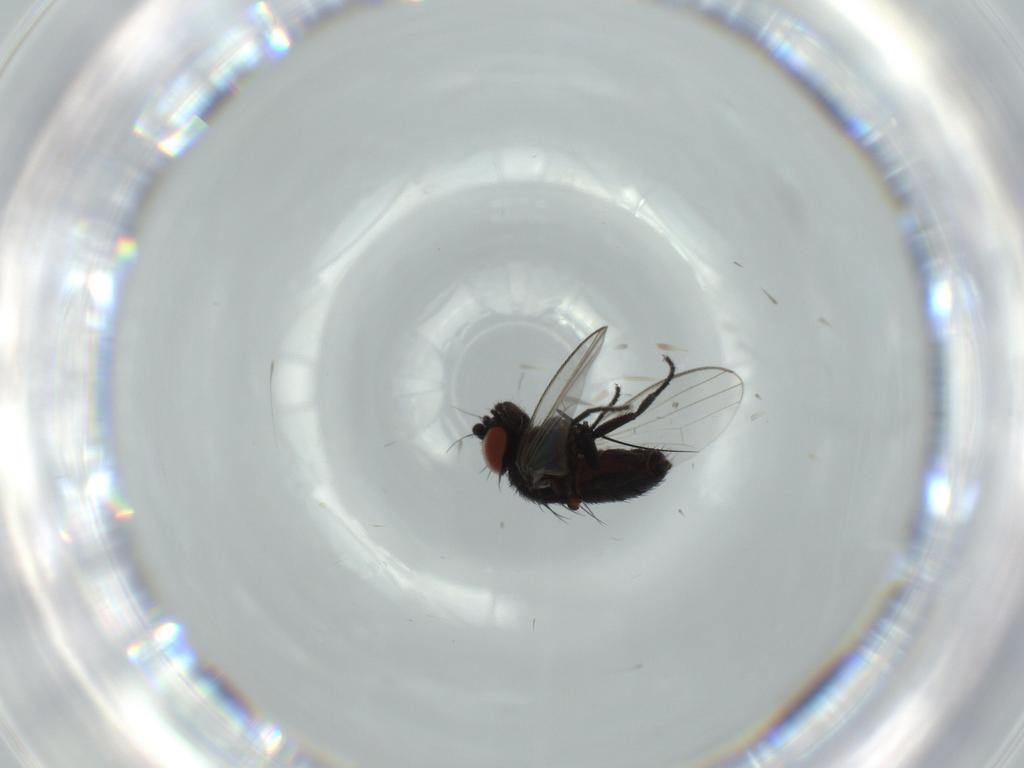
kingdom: Animalia
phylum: Arthropoda
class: Insecta
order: Diptera
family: Milichiidae
